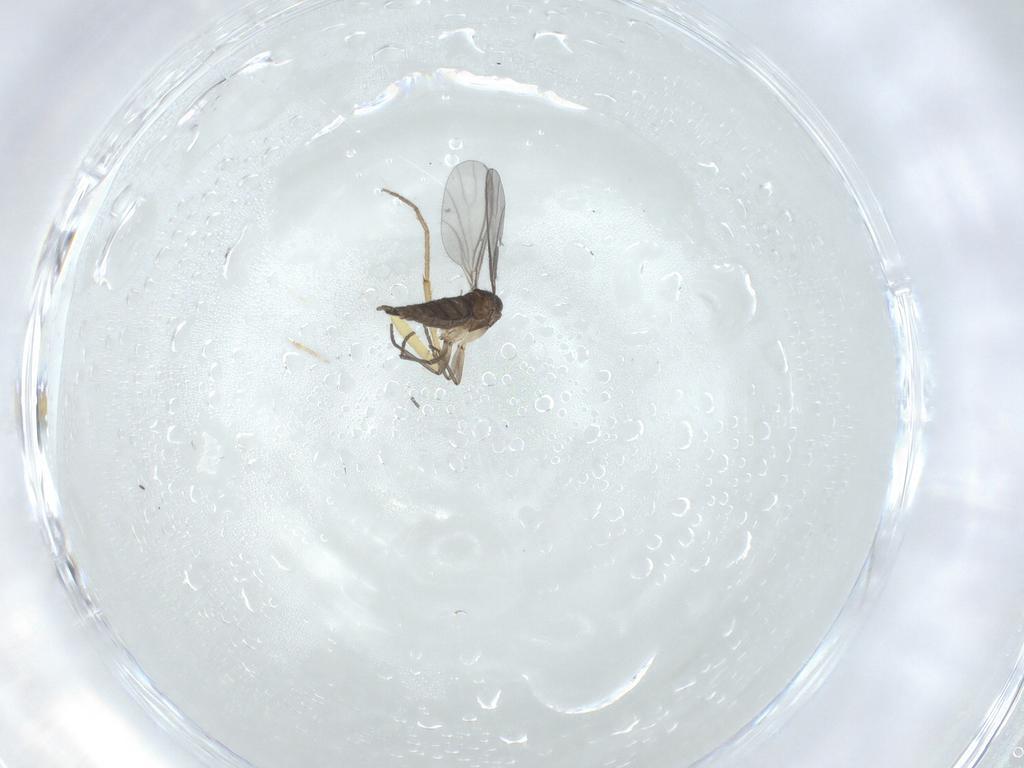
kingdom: Animalia
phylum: Arthropoda
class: Insecta
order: Diptera
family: Sciaridae
